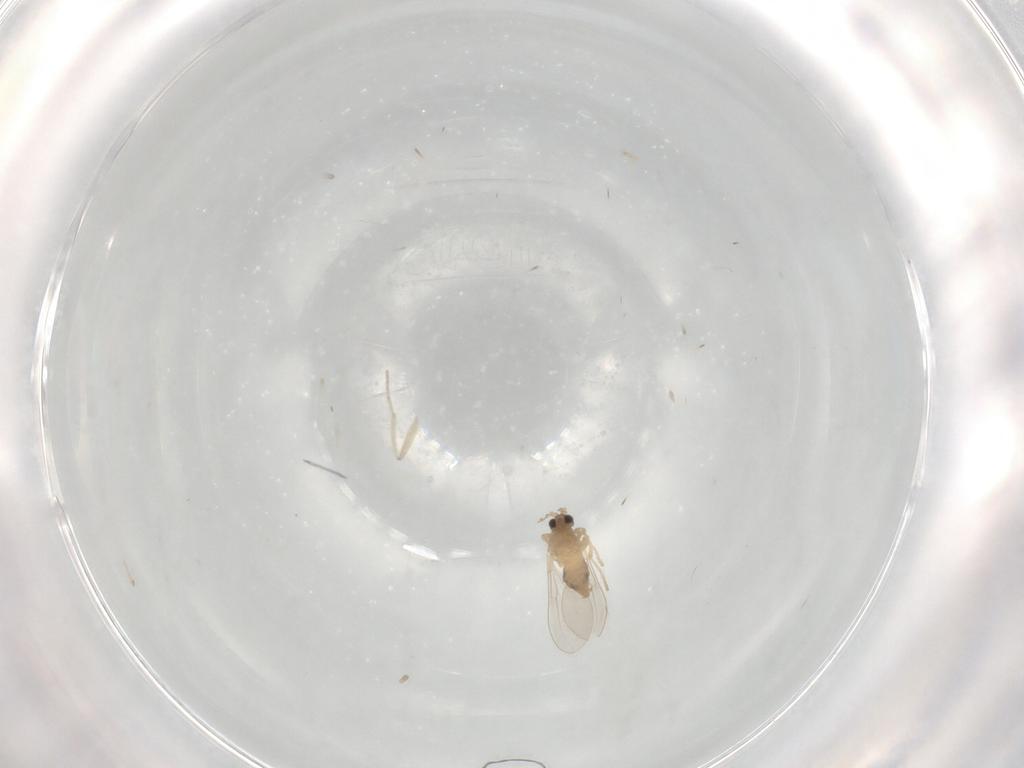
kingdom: Animalia
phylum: Arthropoda
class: Insecta
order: Diptera
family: Cecidomyiidae
